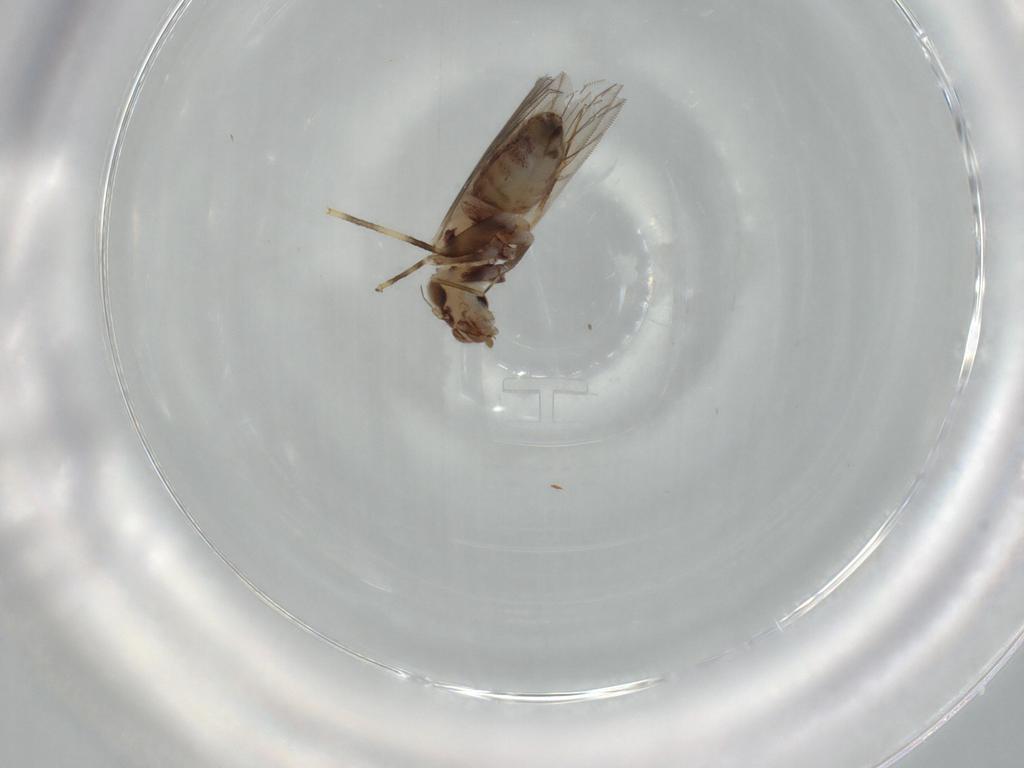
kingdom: Animalia
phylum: Arthropoda
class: Insecta
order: Psocodea
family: Lepidopsocidae
